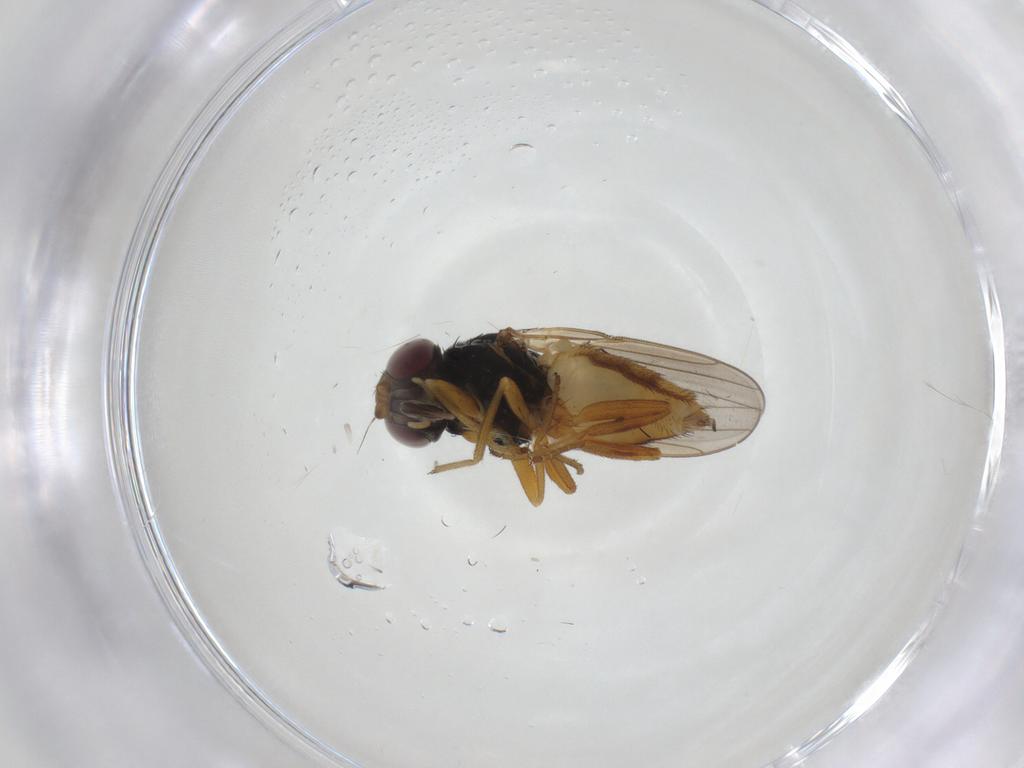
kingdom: Animalia
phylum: Arthropoda
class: Insecta
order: Diptera
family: Chloropidae
